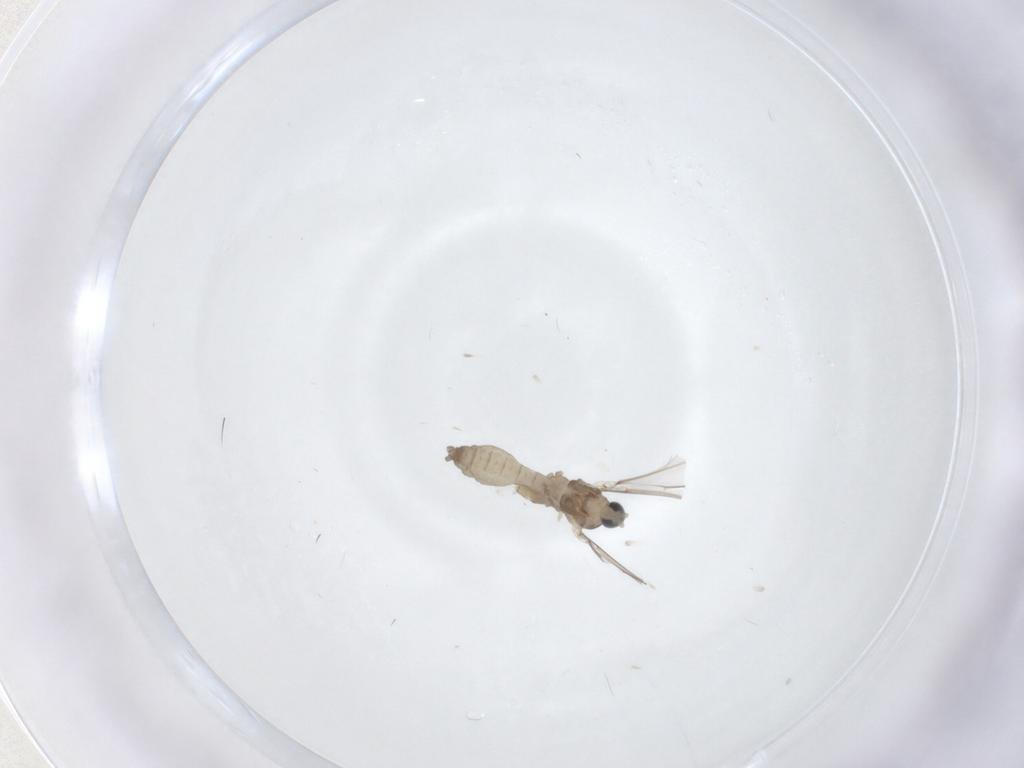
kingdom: Animalia
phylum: Arthropoda
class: Insecta
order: Diptera
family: Cecidomyiidae
